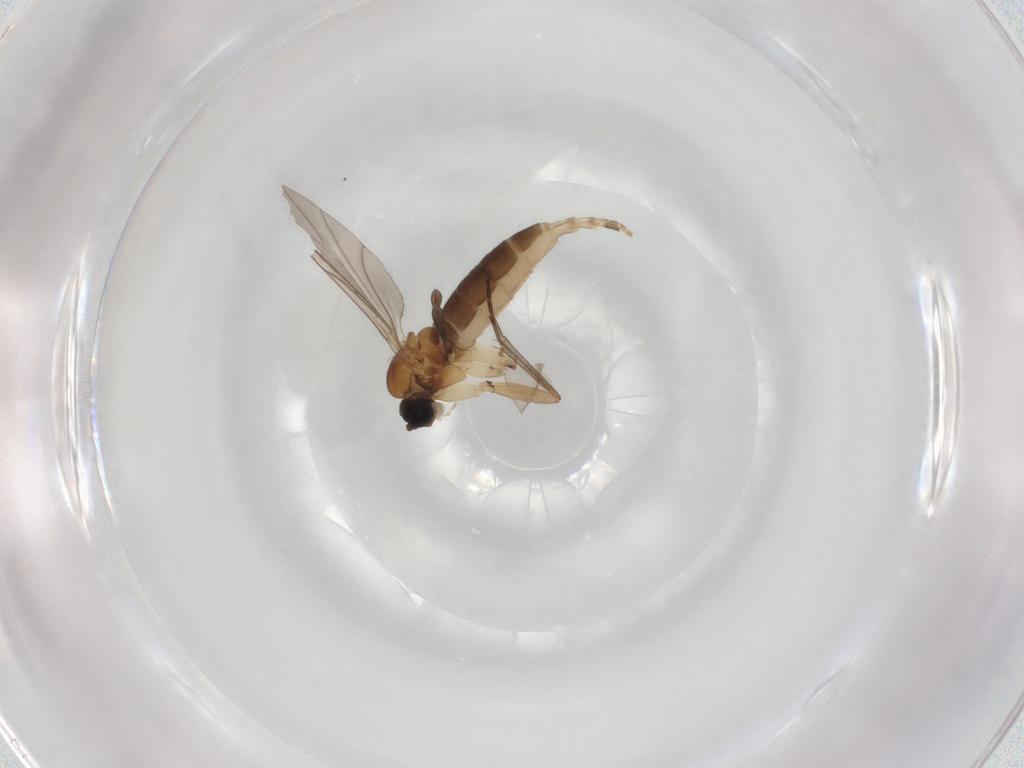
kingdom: Animalia
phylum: Arthropoda
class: Insecta
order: Diptera
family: Sciaridae
